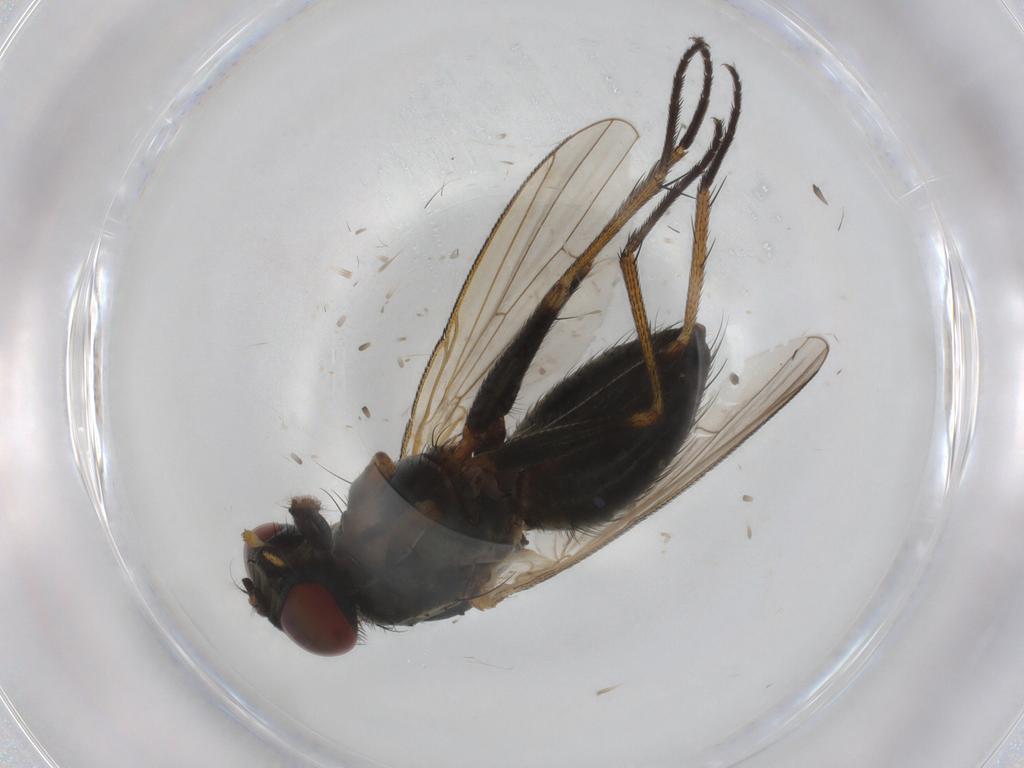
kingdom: Animalia
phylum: Arthropoda
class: Insecta
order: Diptera
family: Muscidae
